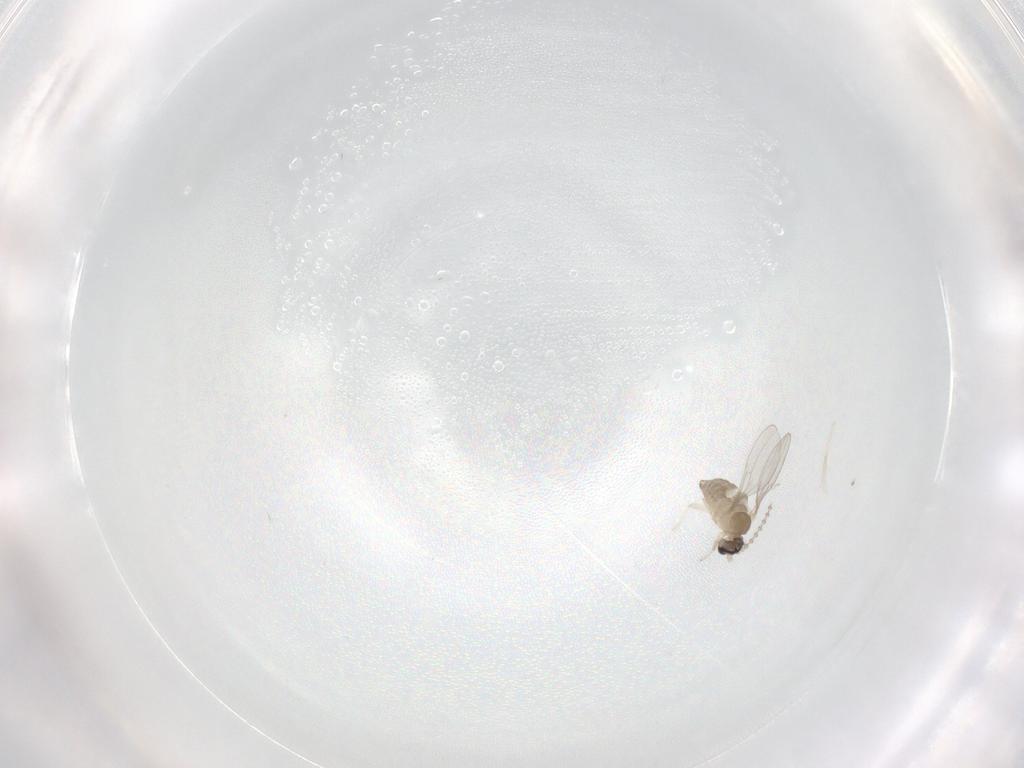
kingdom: Animalia
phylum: Arthropoda
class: Insecta
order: Diptera
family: Cecidomyiidae
